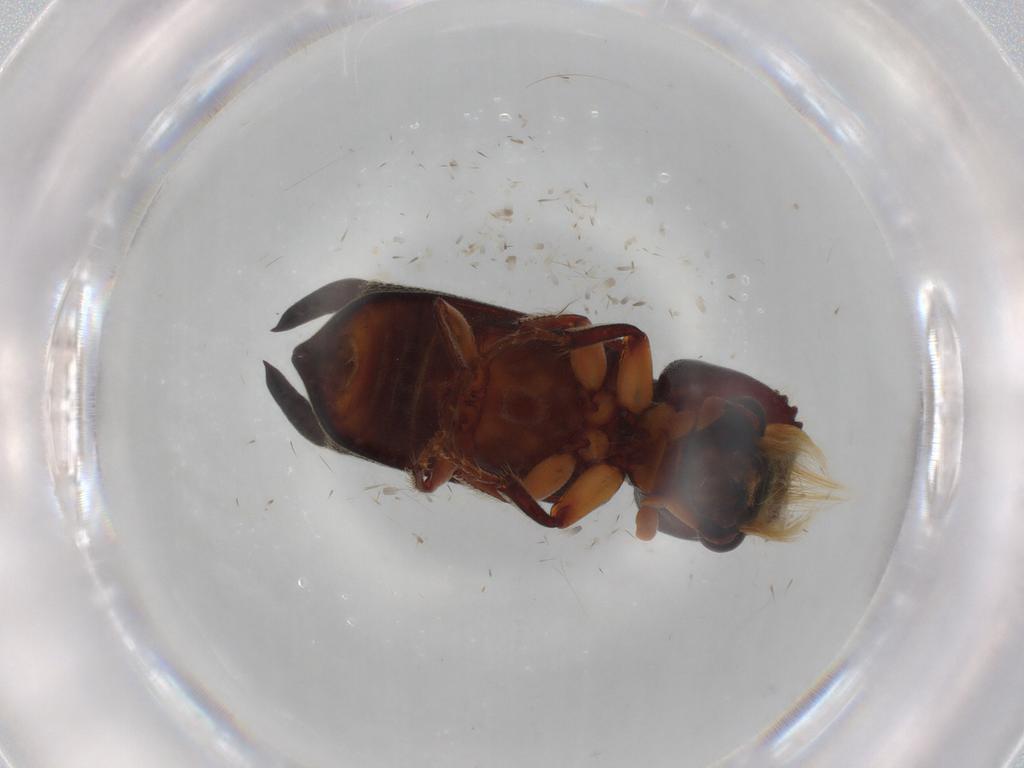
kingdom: Animalia
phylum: Arthropoda
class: Insecta
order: Coleoptera
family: Bostrichidae
